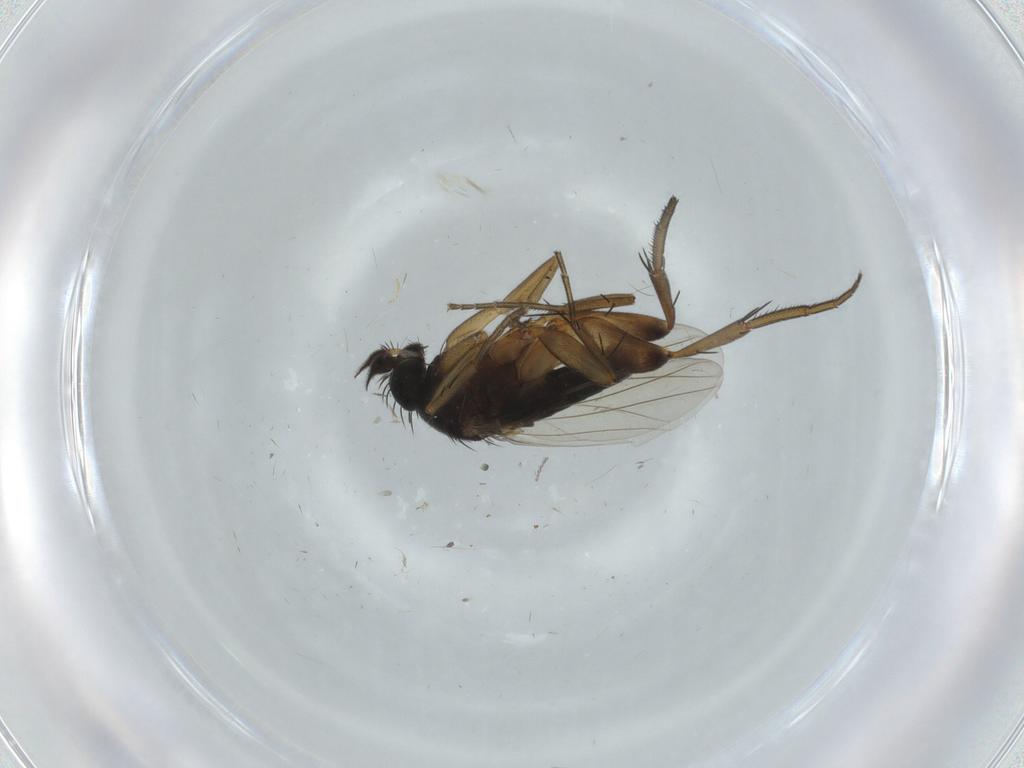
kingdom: Animalia
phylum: Arthropoda
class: Insecta
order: Diptera
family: Phoridae
